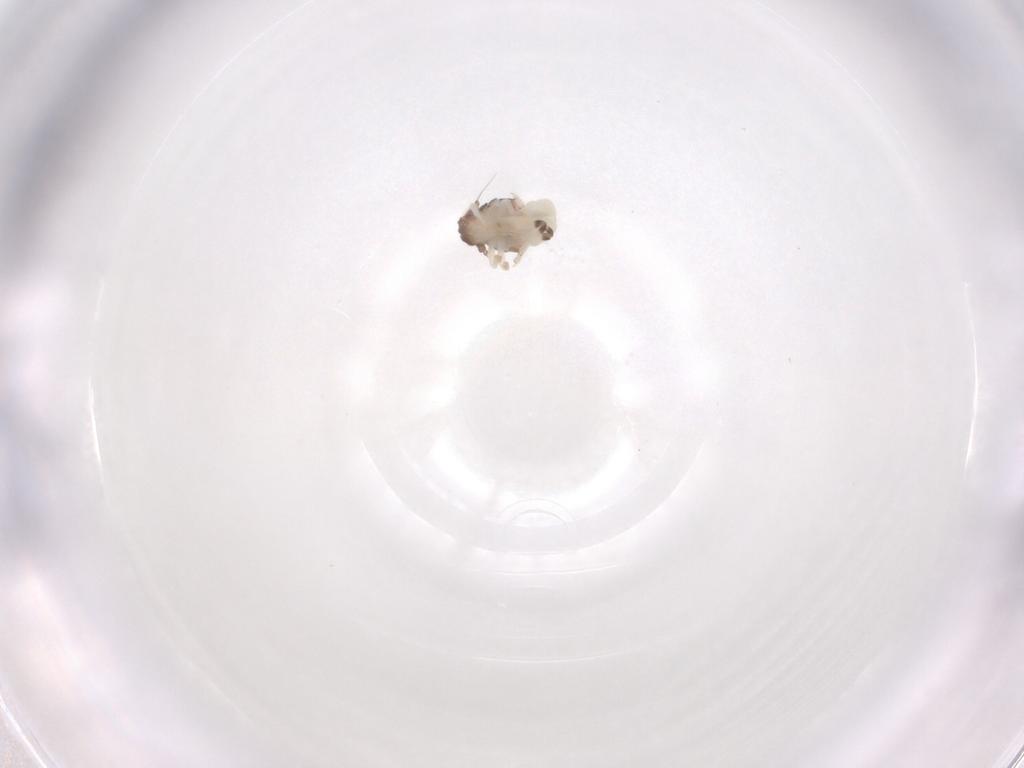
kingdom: Animalia
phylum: Arthropoda
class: Insecta
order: Hemiptera
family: Nogodinidae
